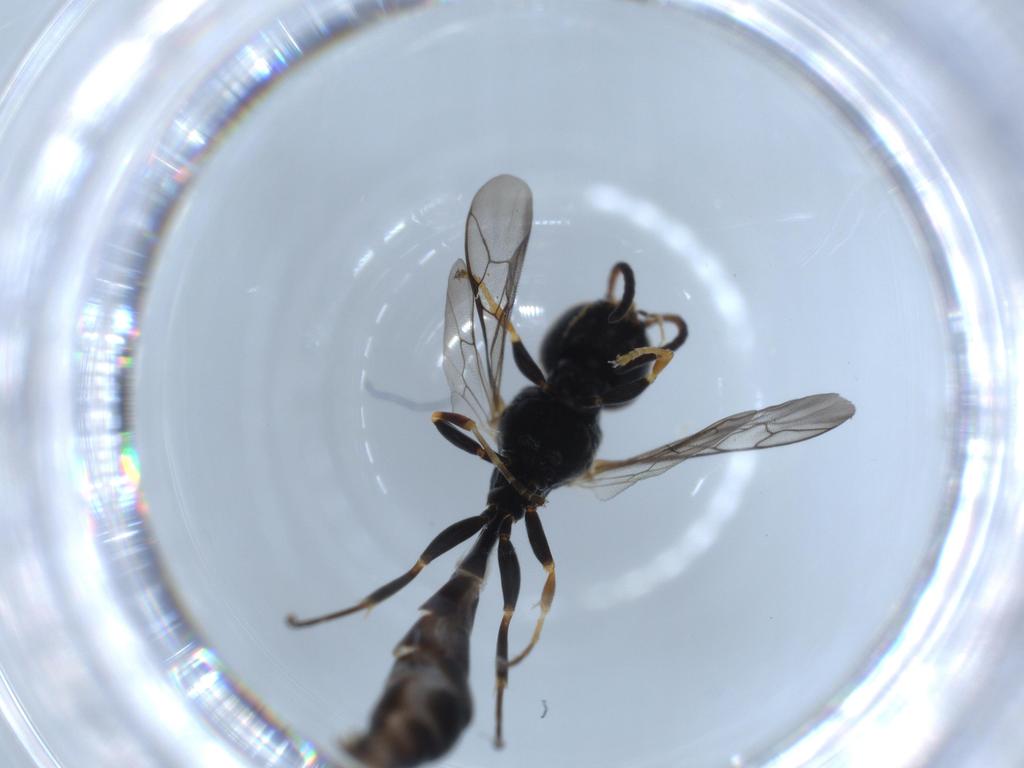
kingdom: Animalia
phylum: Arthropoda
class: Insecta
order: Hymenoptera
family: Crabronidae
